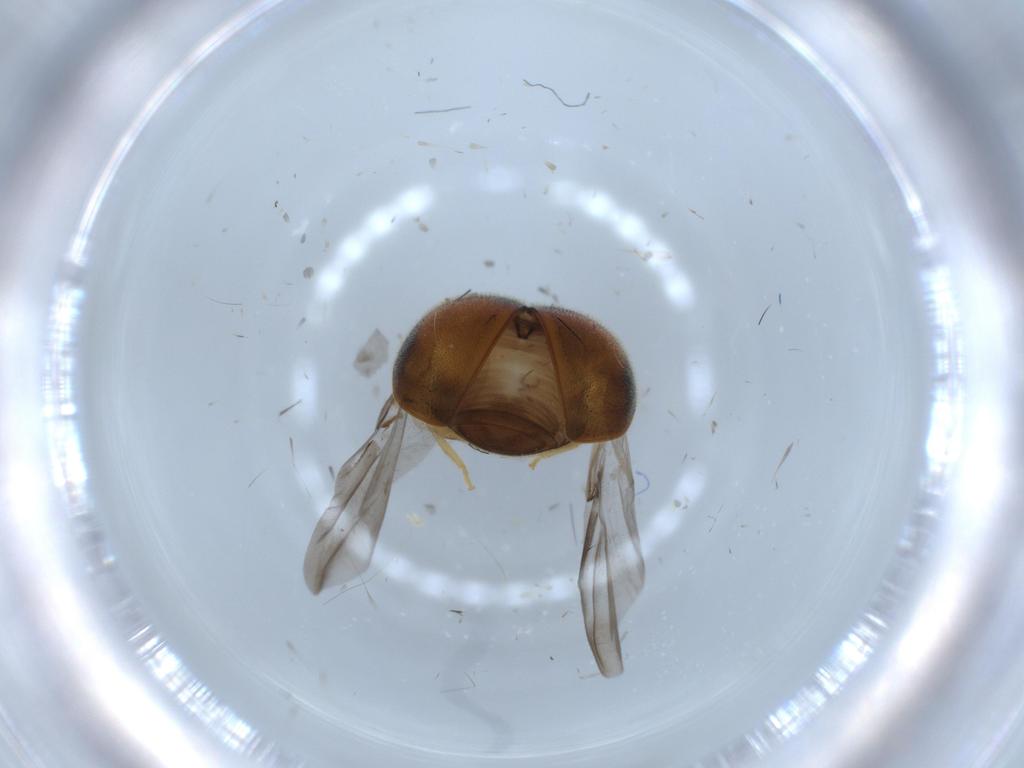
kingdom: Animalia
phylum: Arthropoda
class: Insecta
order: Coleoptera
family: Coccinellidae
